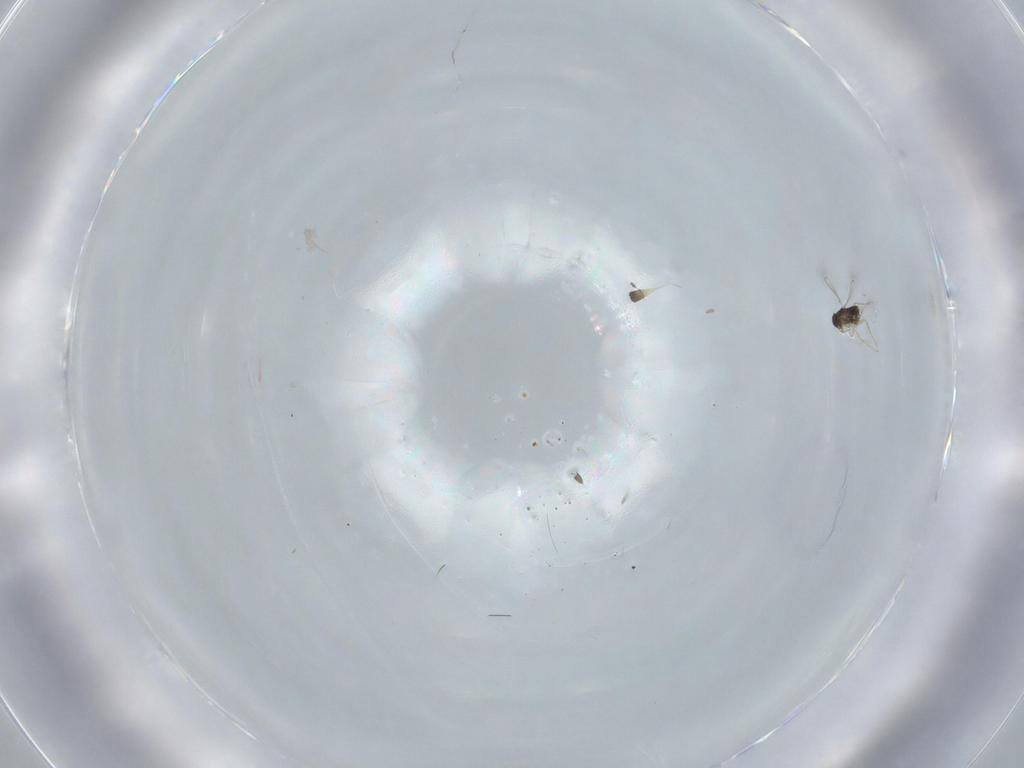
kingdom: Animalia
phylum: Arthropoda
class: Insecta
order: Hymenoptera
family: Mymaridae
